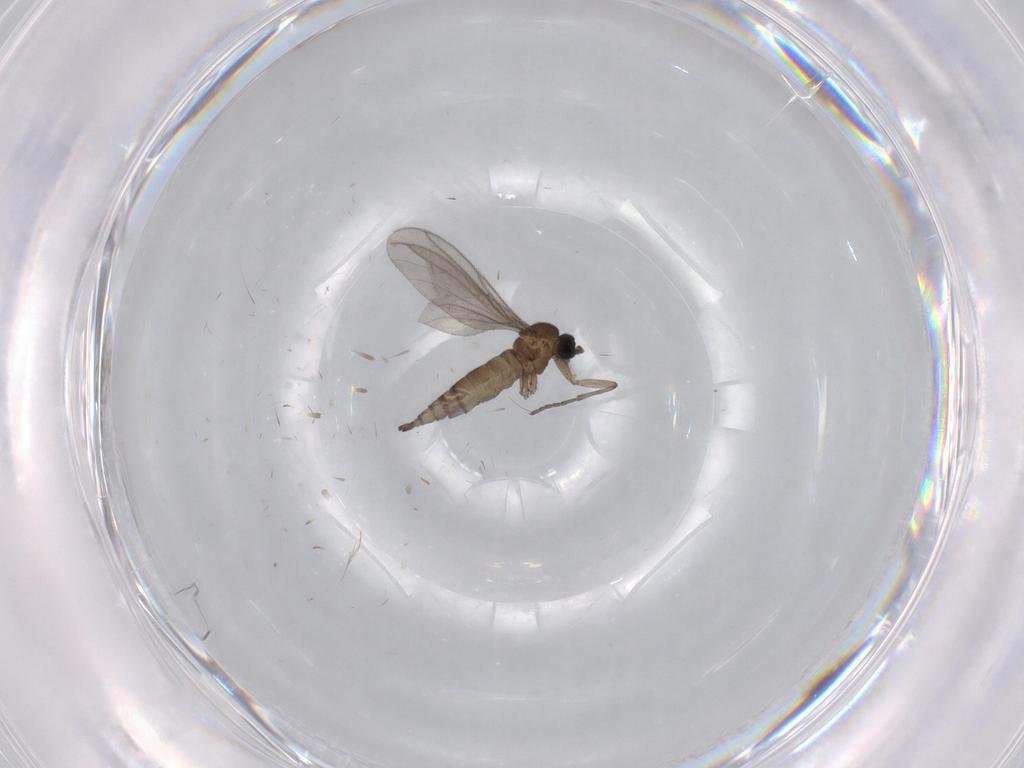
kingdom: Animalia
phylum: Arthropoda
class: Insecta
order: Diptera
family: Sciaridae
